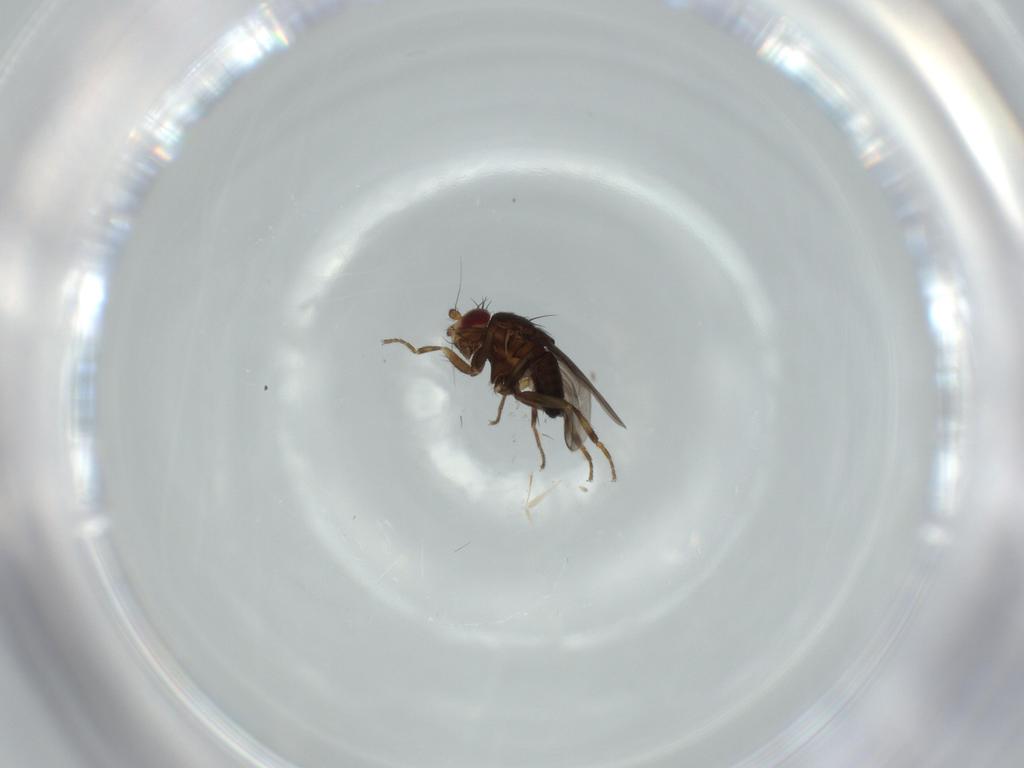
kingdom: Animalia
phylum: Arthropoda
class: Insecta
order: Diptera
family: Sphaeroceridae
